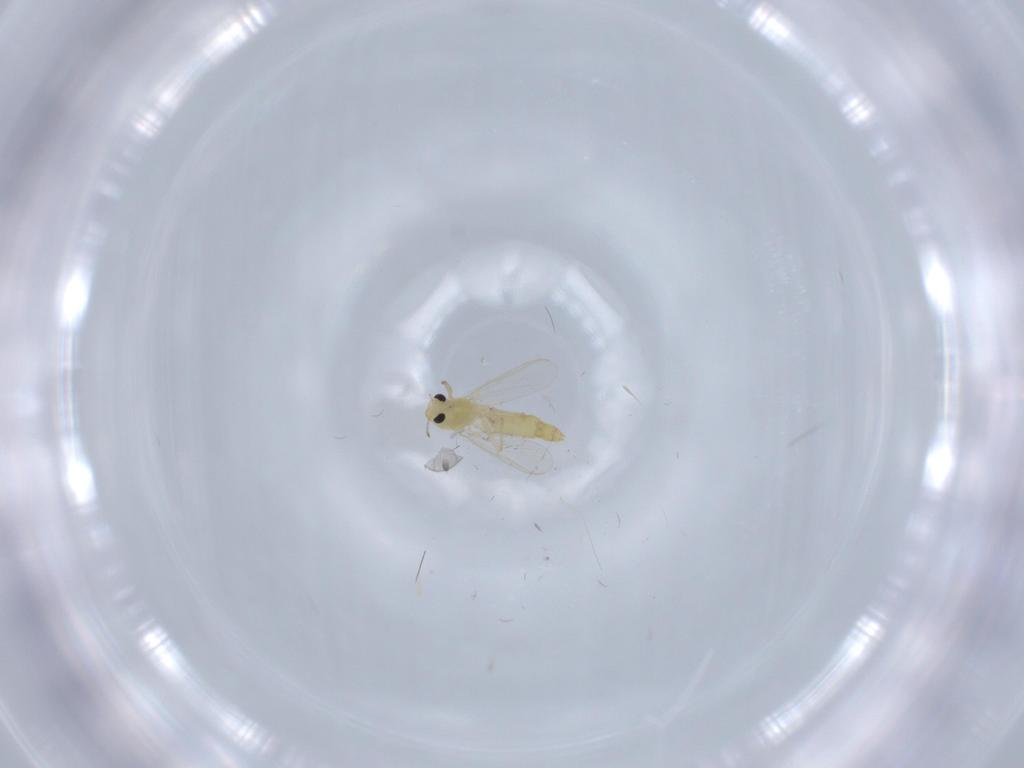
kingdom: Animalia
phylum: Arthropoda
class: Insecta
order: Diptera
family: Chironomidae
